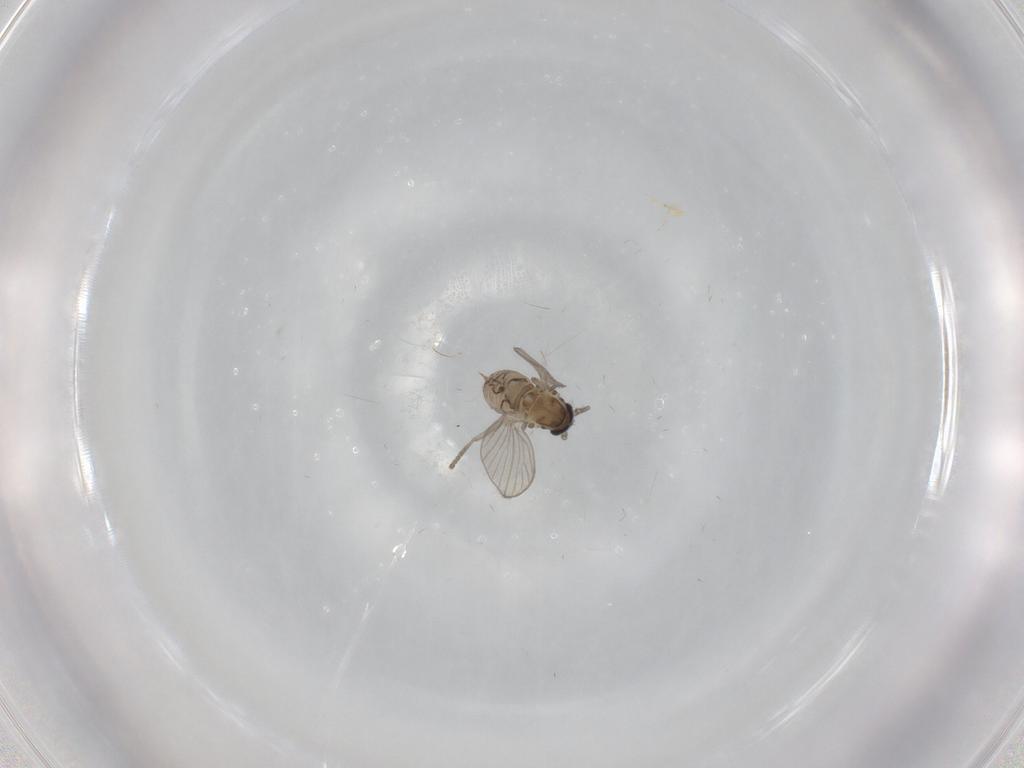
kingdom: Animalia
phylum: Arthropoda
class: Insecta
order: Diptera
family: Psychodidae
